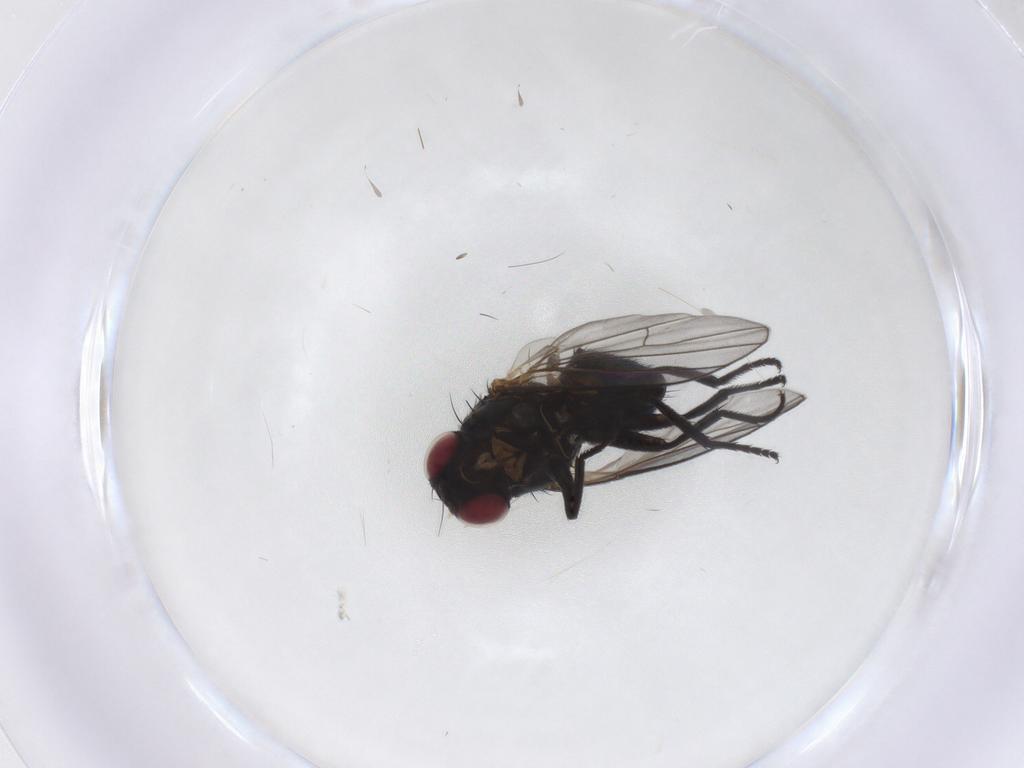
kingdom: Animalia
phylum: Arthropoda
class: Insecta
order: Diptera
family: Agromyzidae
